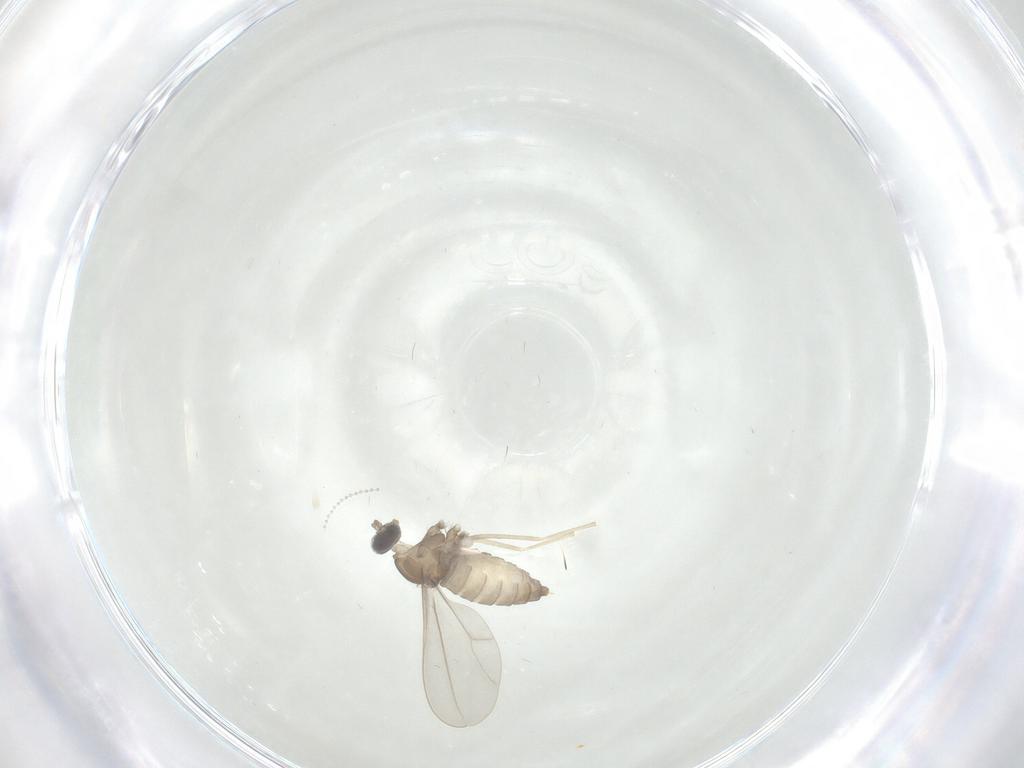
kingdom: Animalia
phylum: Arthropoda
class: Insecta
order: Diptera
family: Cecidomyiidae
